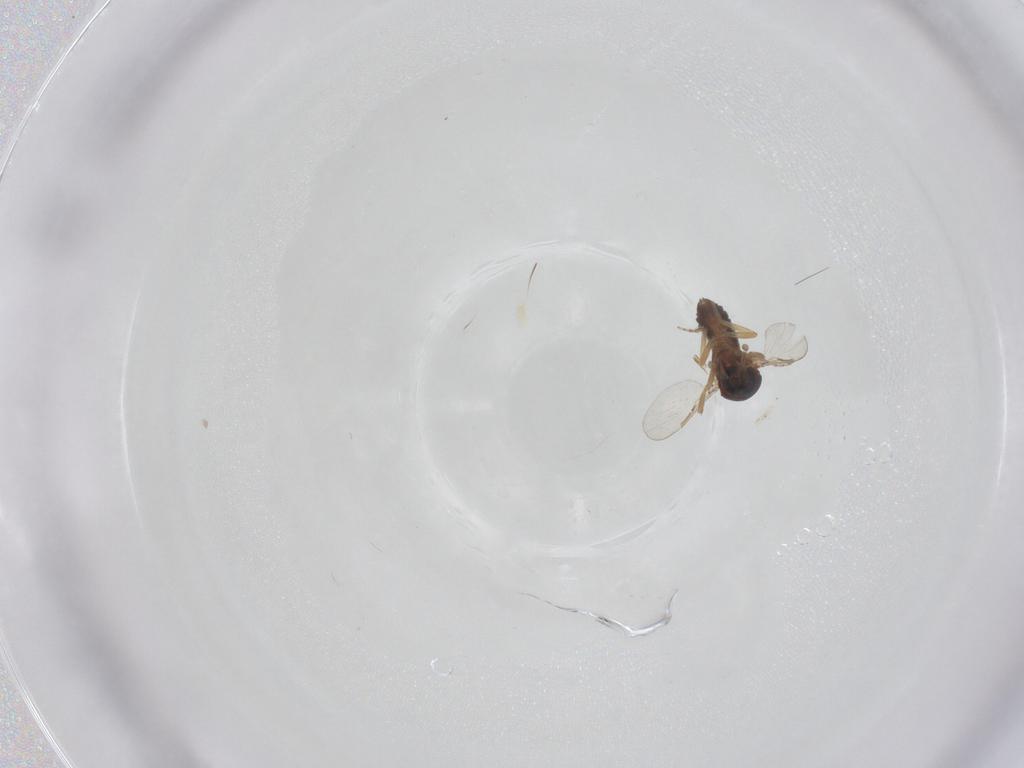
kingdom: Animalia
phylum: Arthropoda
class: Insecta
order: Diptera
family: Ceratopogonidae
